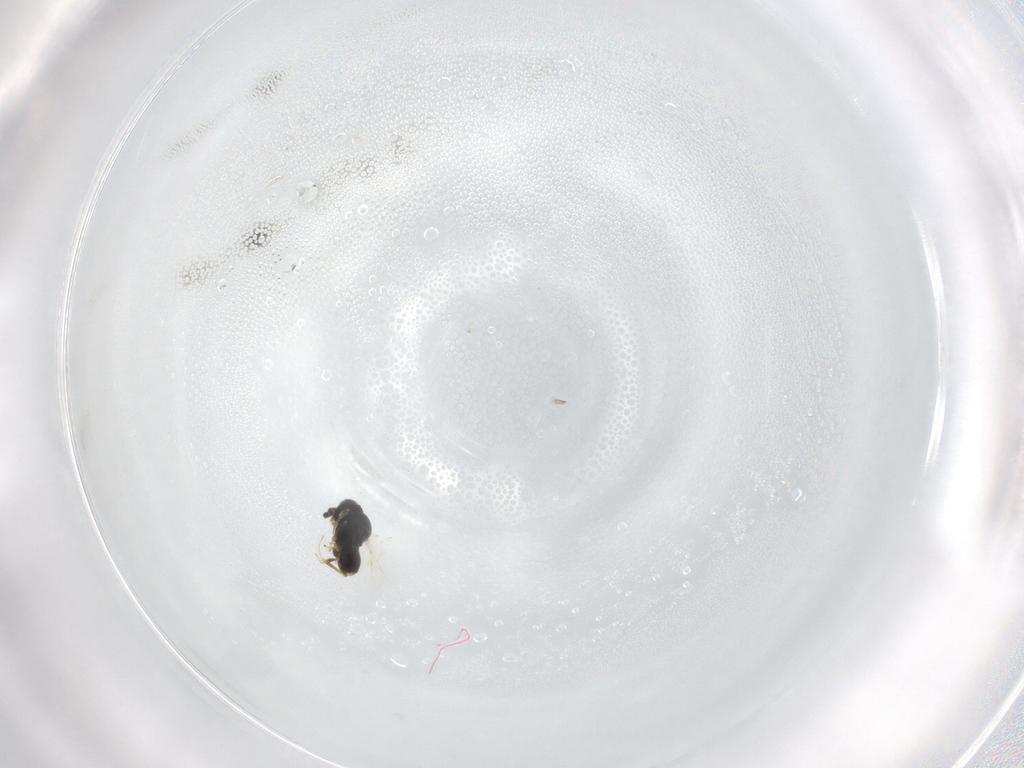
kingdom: Animalia
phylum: Arthropoda
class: Insecta
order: Hymenoptera
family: Scelionidae
